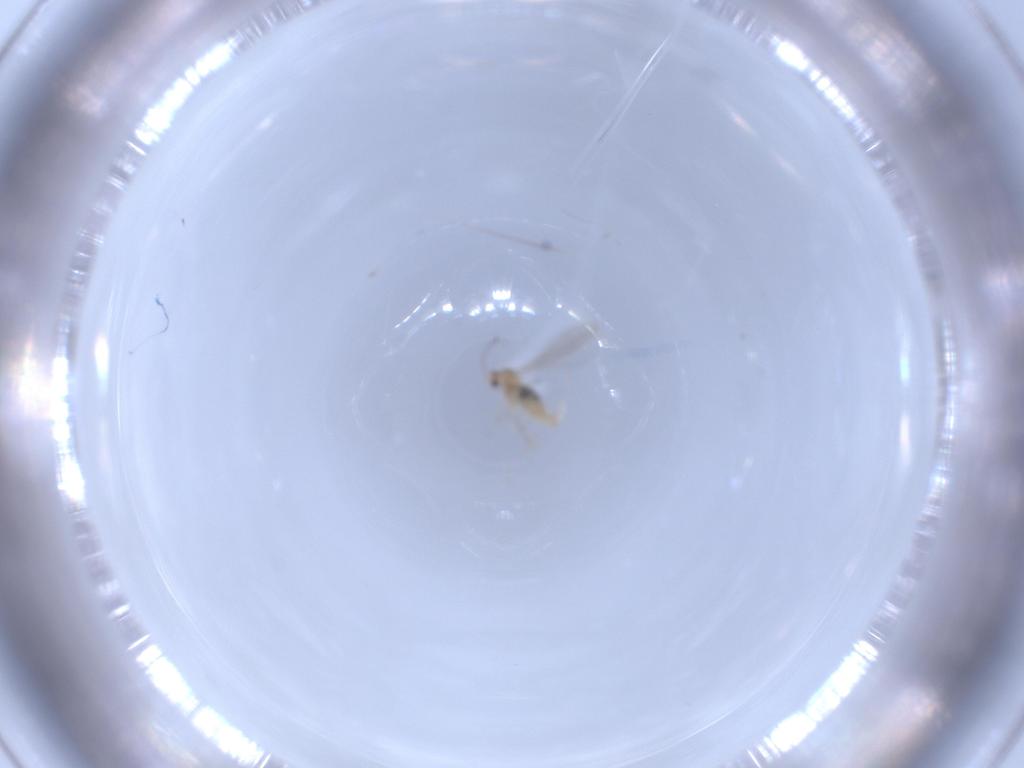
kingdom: Animalia
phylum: Arthropoda
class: Insecta
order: Diptera
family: Cecidomyiidae
